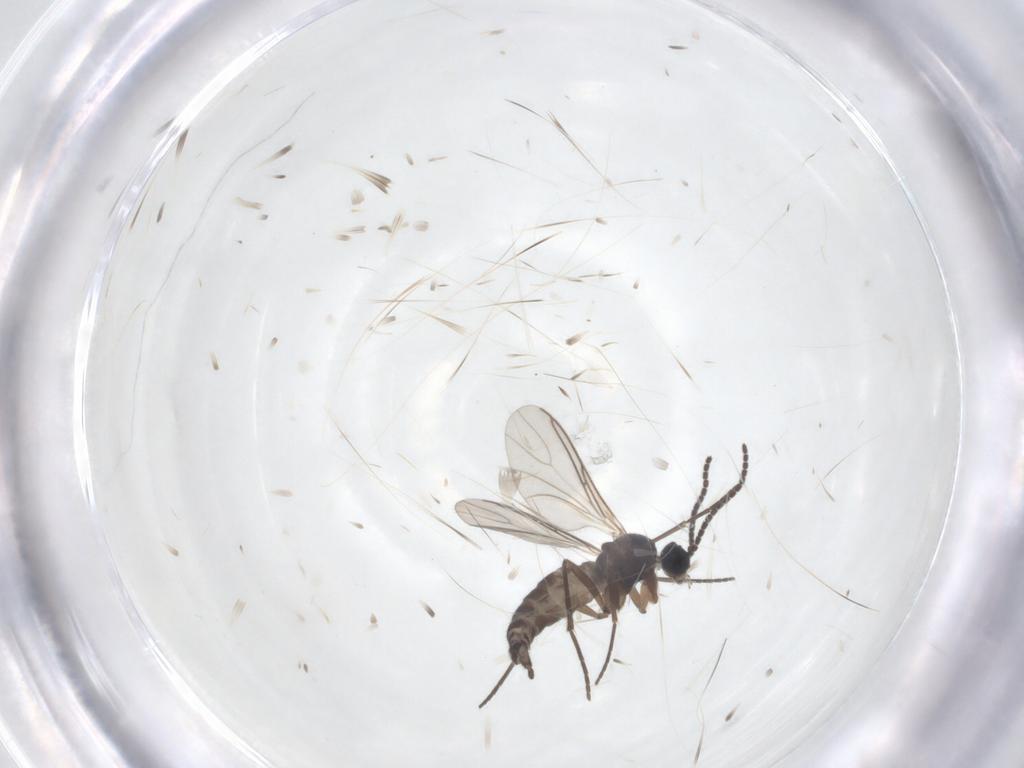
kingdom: Animalia
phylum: Arthropoda
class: Insecta
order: Diptera
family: Sciaridae
